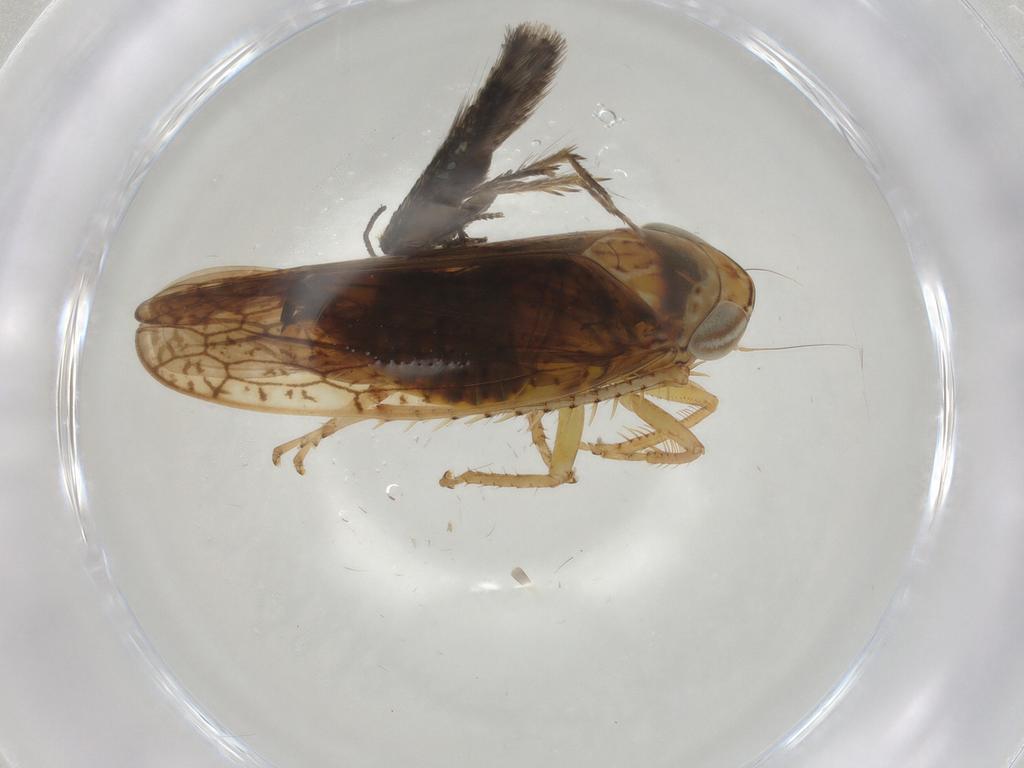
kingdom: Animalia
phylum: Arthropoda
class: Insecta
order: Hemiptera
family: Cicadellidae
